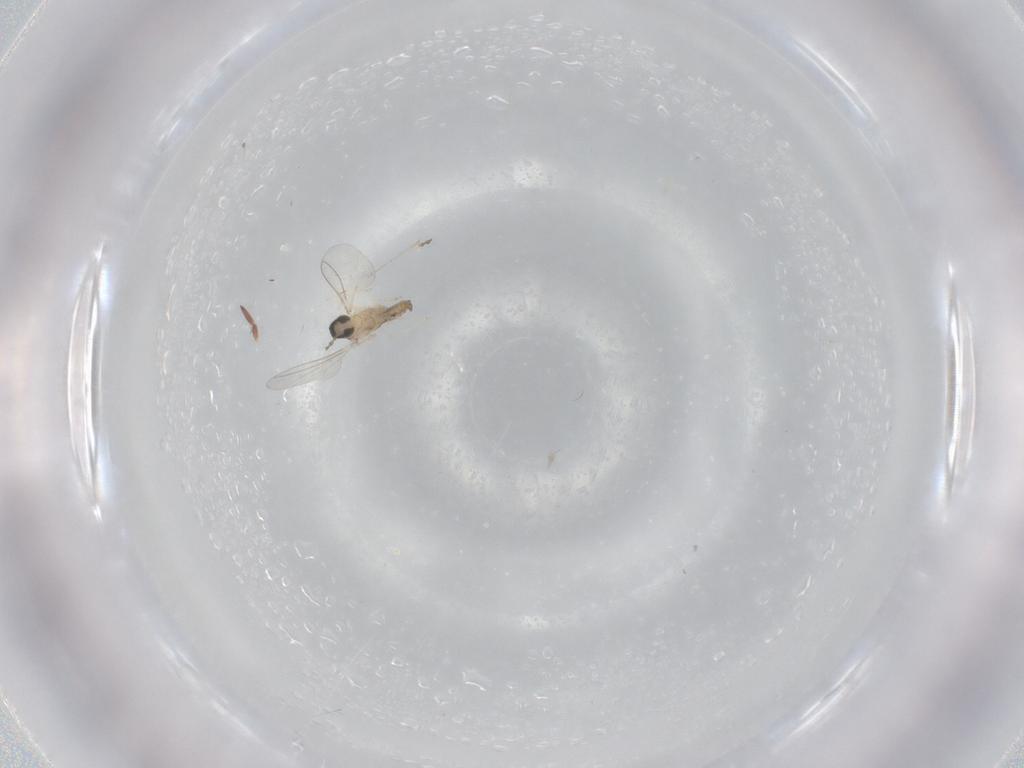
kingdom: Animalia
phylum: Arthropoda
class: Insecta
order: Diptera
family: Cecidomyiidae
